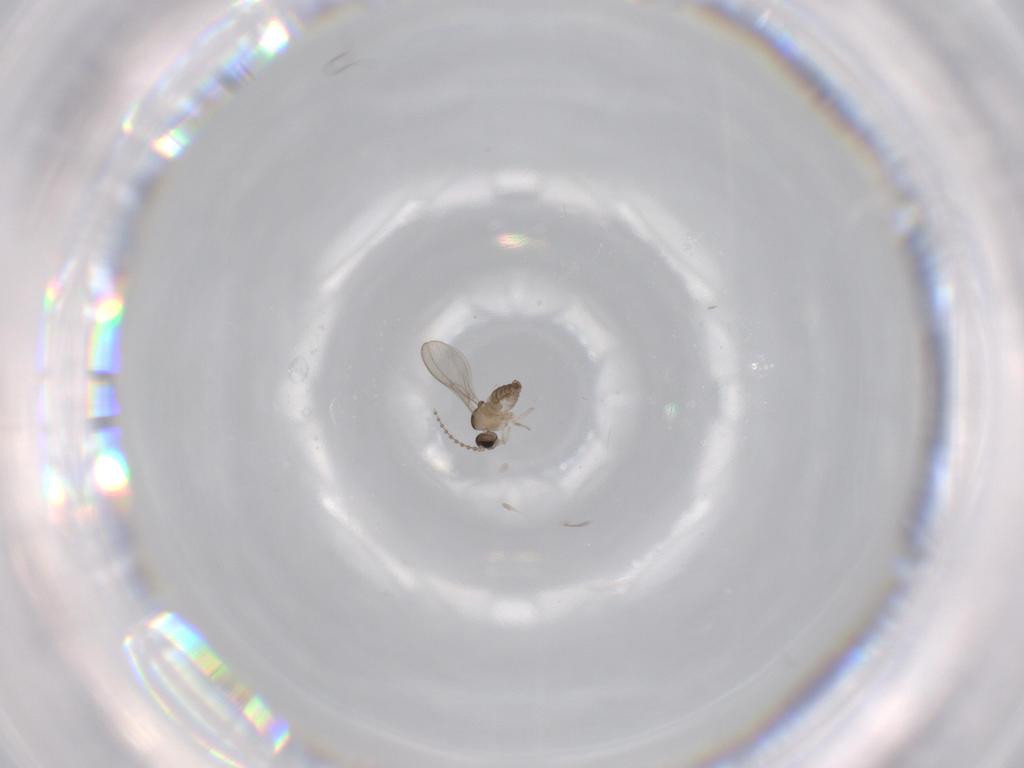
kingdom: Animalia
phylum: Arthropoda
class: Insecta
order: Diptera
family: Cecidomyiidae
